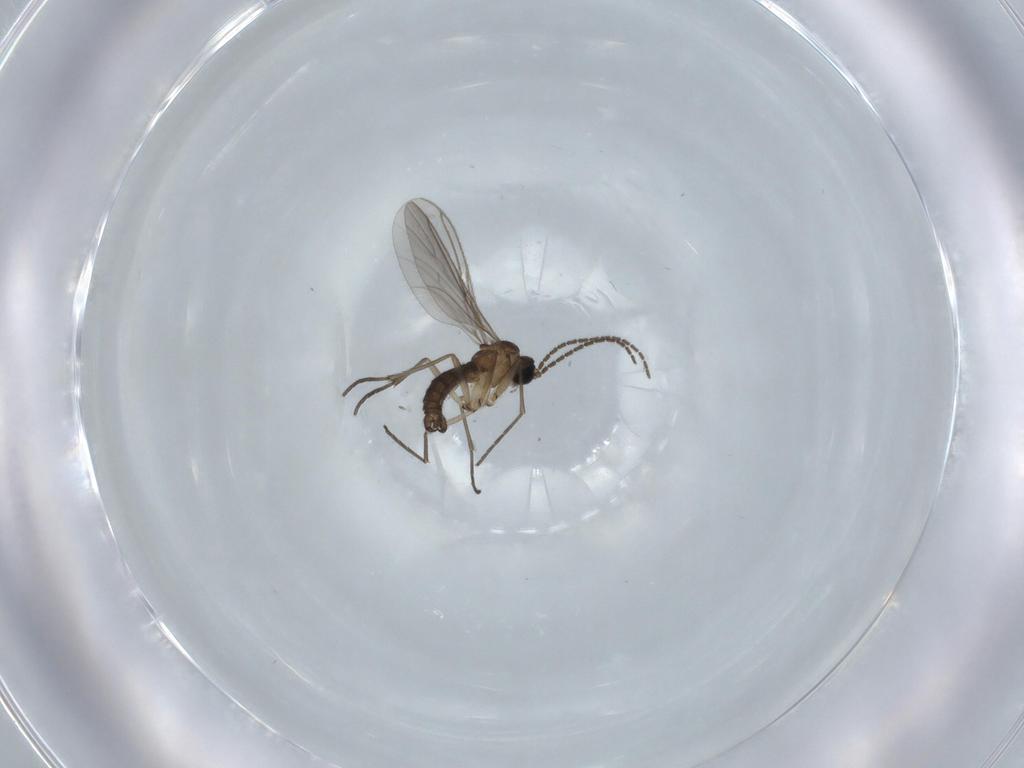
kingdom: Animalia
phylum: Arthropoda
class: Insecta
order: Diptera
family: Sciaridae
